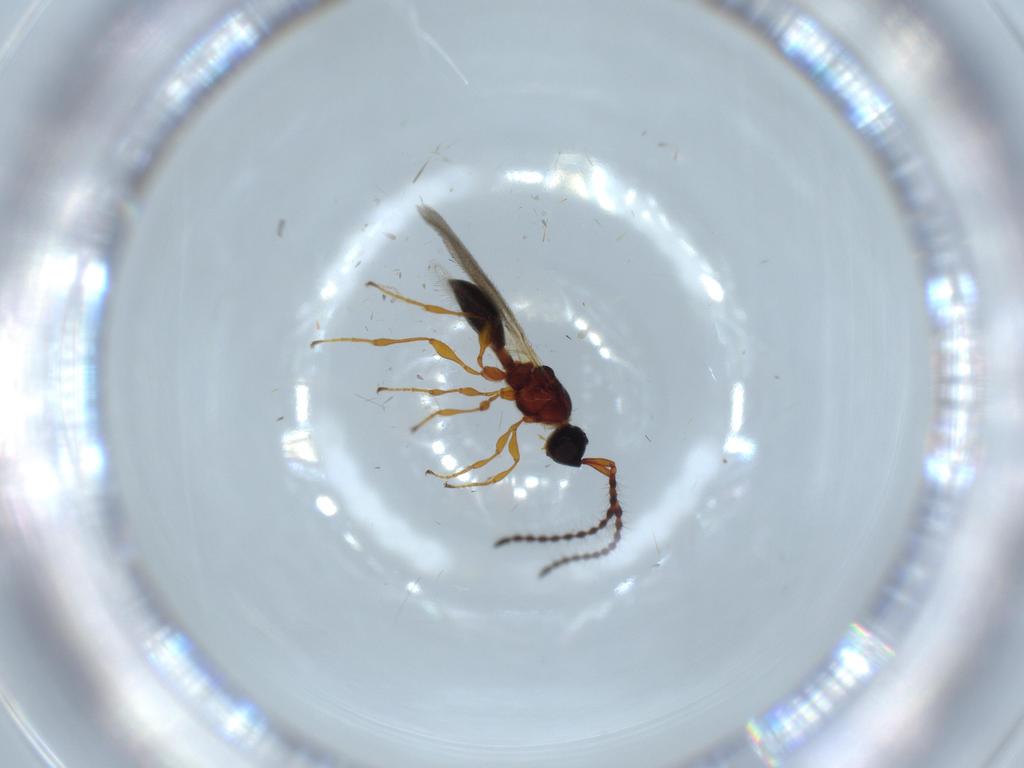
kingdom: Animalia
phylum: Arthropoda
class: Insecta
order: Hymenoptera
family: Diapriidae
